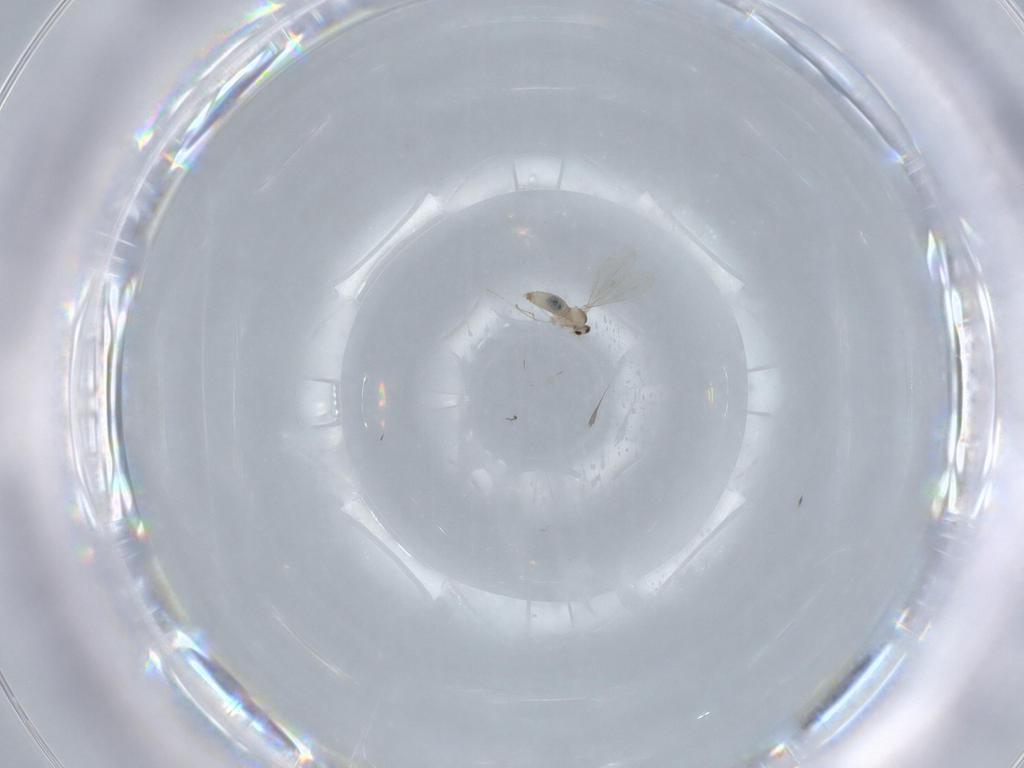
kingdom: Animalia
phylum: Arthropoda
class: Insecta
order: Diptera
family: Cecidomyiidae
